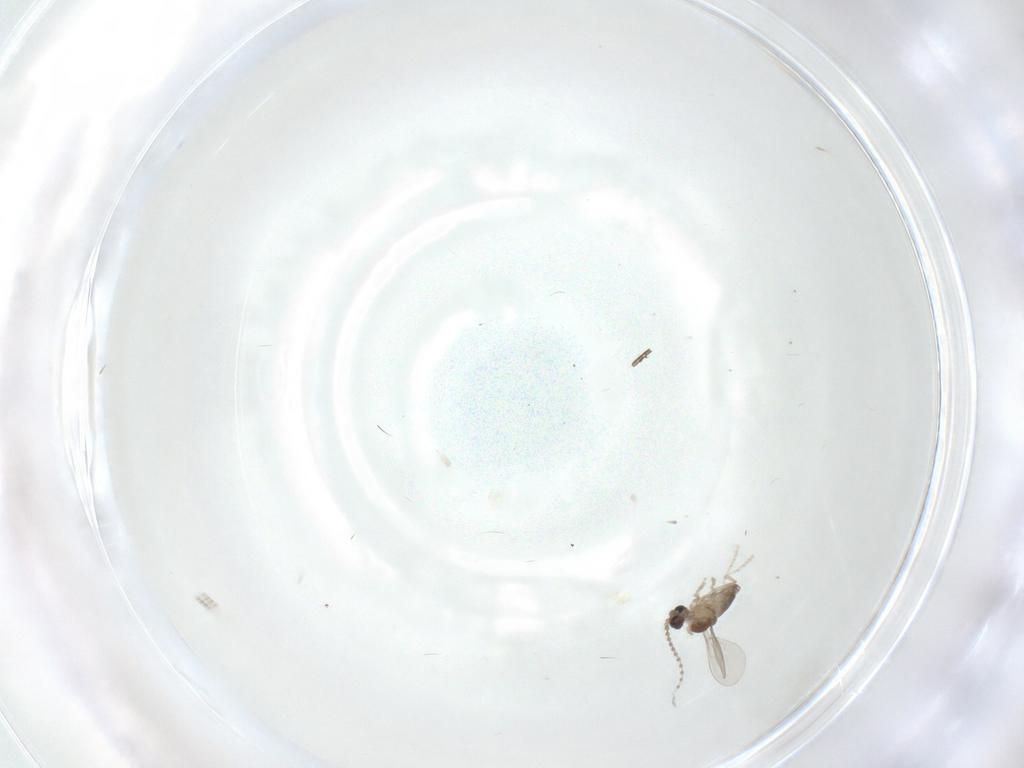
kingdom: Animalia
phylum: Arthropoda
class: Insecta
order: Diptera
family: Cecidomyiidae
